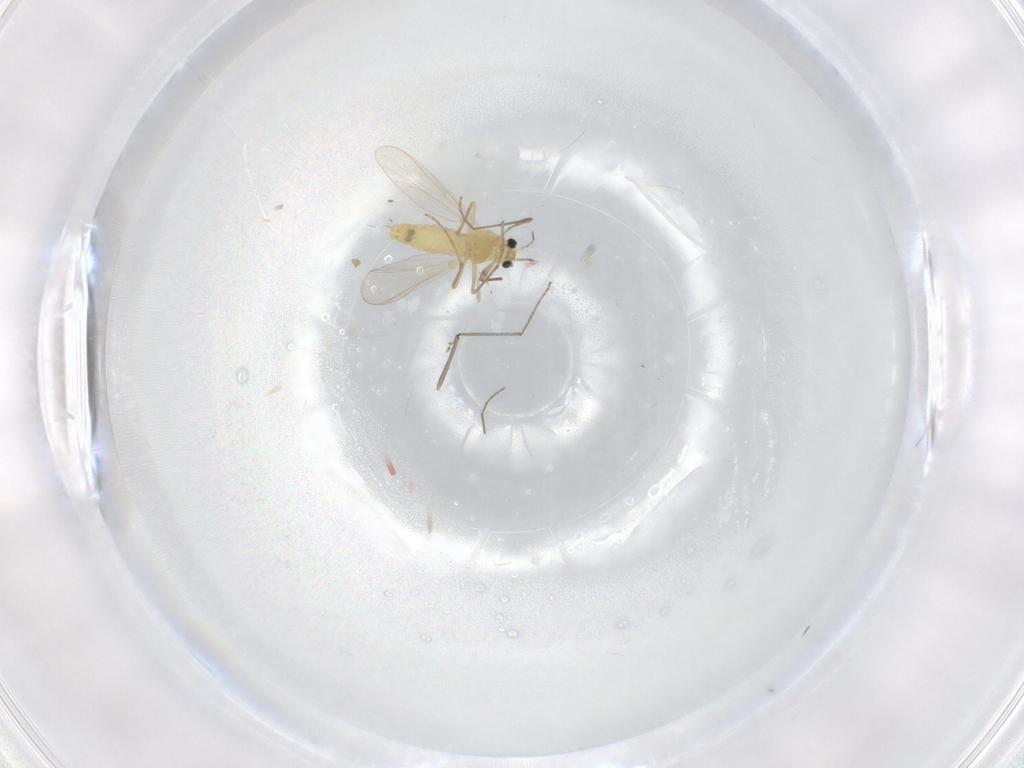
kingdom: Animalia
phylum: Arthropoda
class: Insecta
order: Diptera
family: Chironomidae
